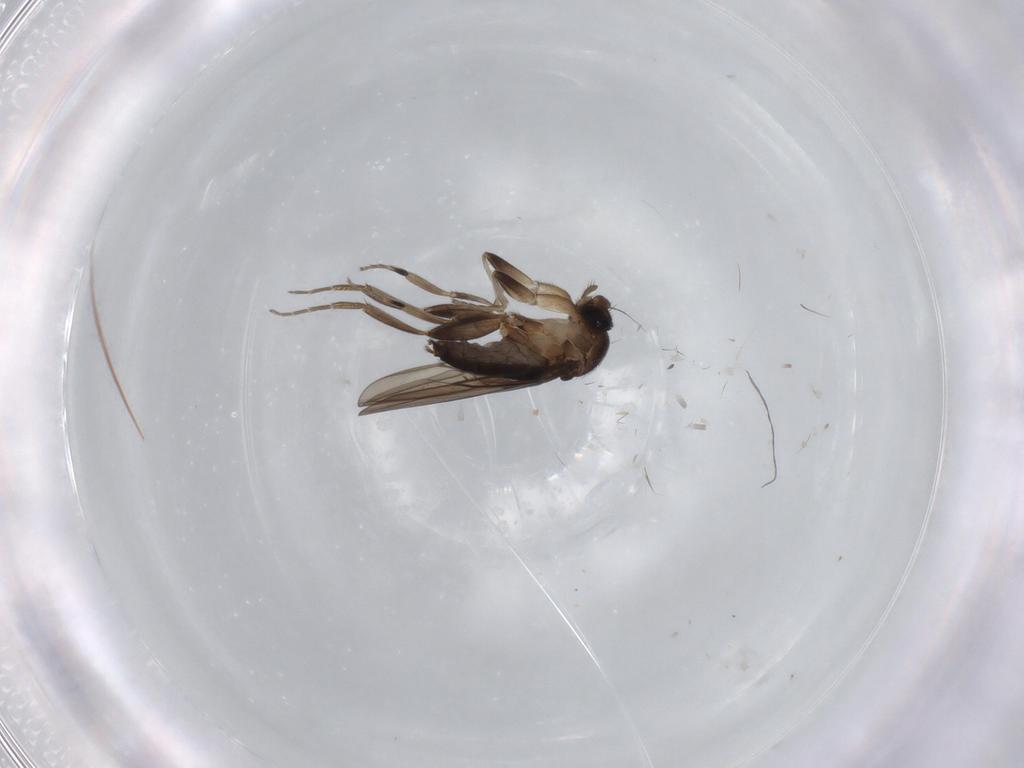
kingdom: Animalia
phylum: Arthropoda
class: Insecta
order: Diptera
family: Phoridae
